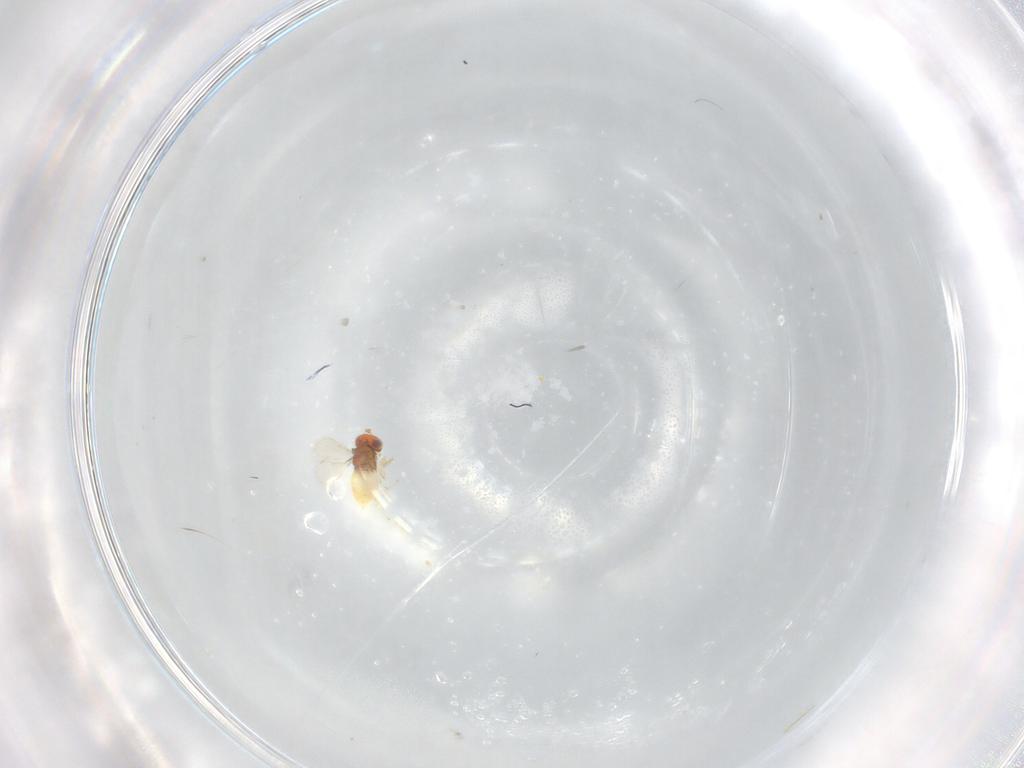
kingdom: Animalia
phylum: Arthropoda
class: Insecta
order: Hymenoptera
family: Aphelinidae
